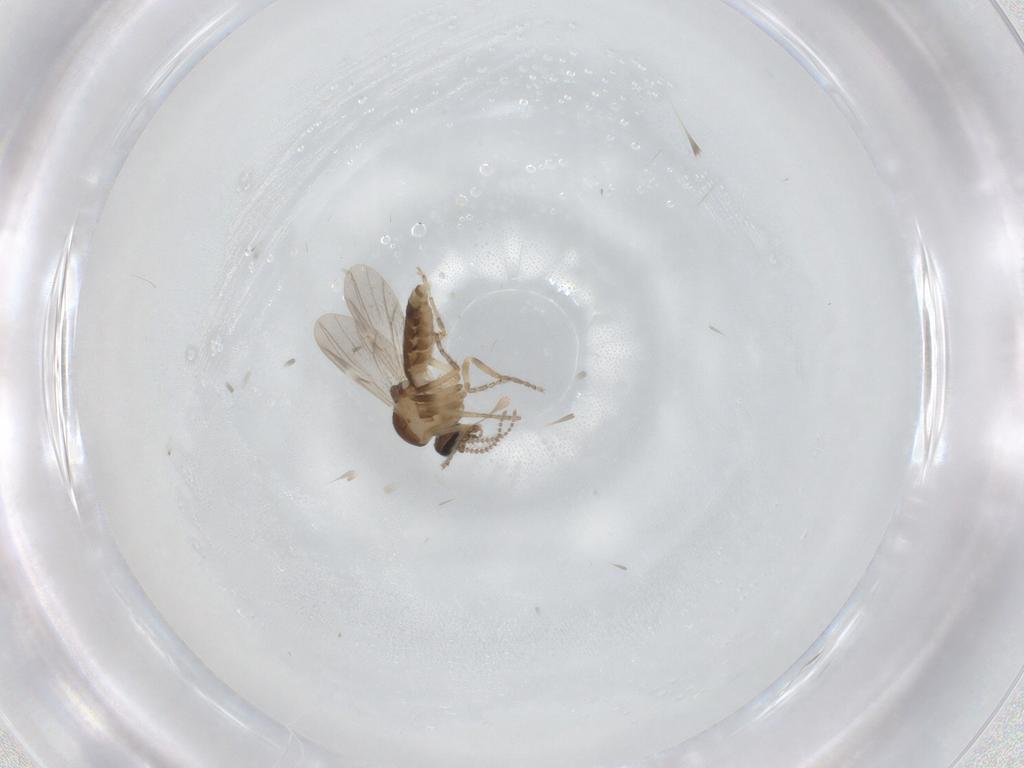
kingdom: Animalia
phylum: Arthropoda
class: Insecta
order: Diptera
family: Ceratopogonidae
